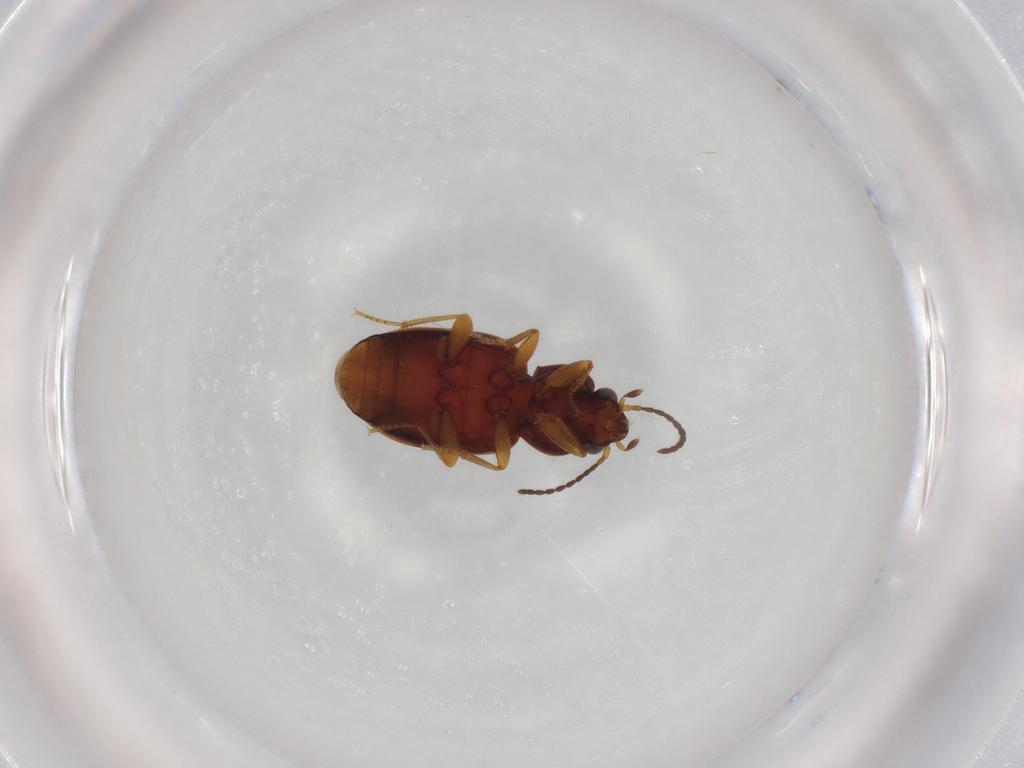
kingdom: Animalia
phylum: Arthropoda
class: Insecta
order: Coleoptera
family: Carabidae
